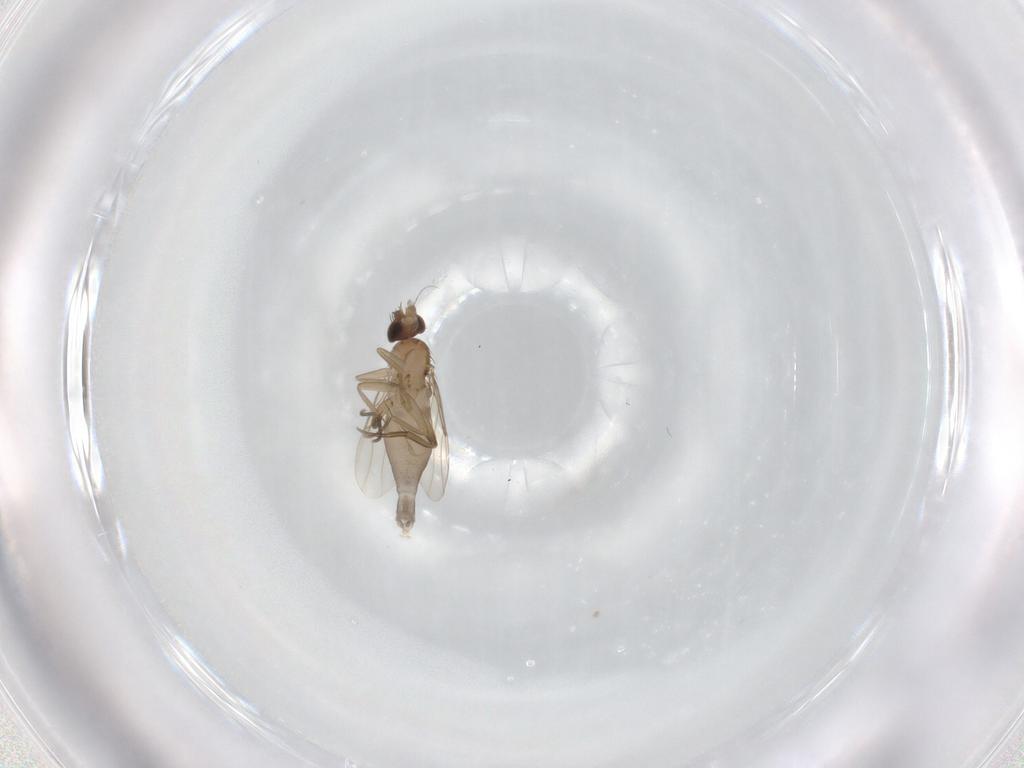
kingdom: Animalia
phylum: Arthropoda
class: Insecta
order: Diptera
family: Phoridae
